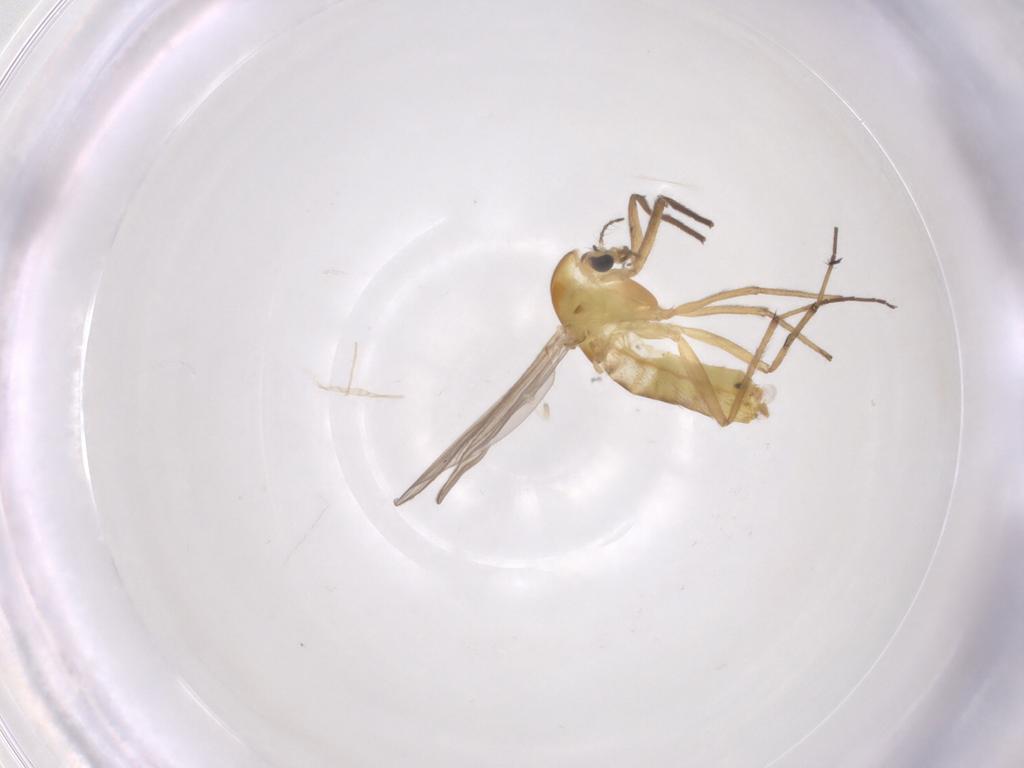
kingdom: Animalia
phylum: Arthropoda
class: Insecta
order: Diptera
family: Chironomidae
